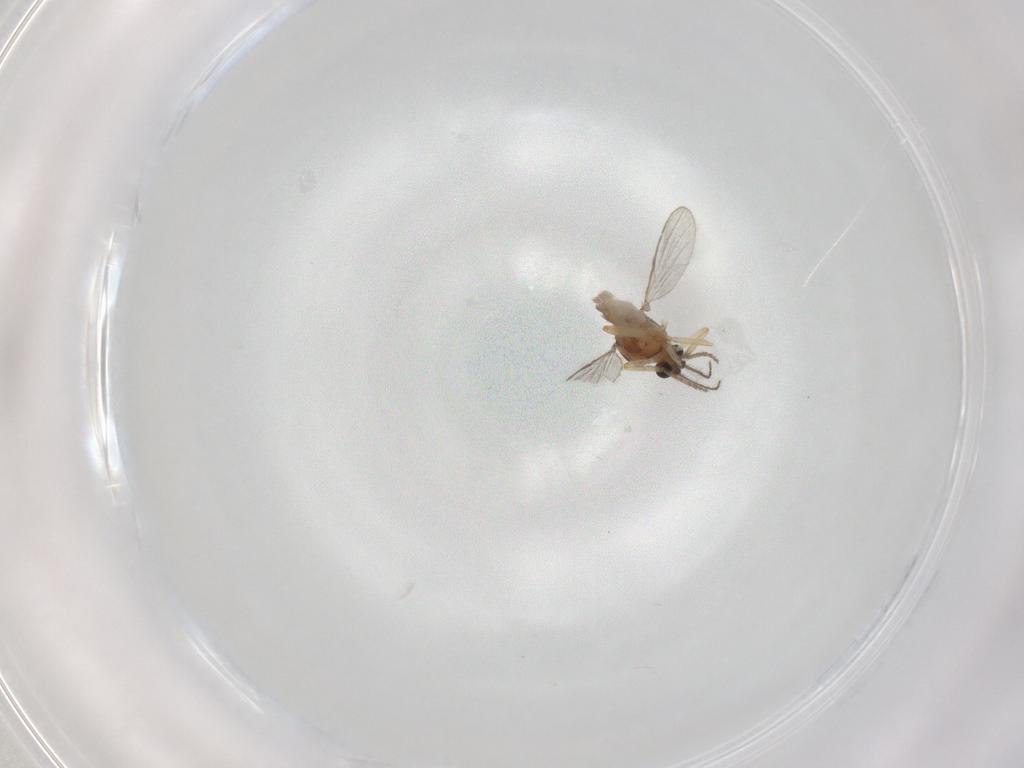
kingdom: Animalia
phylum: Arthropoda
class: Insecta
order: Diptera
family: Ceratopogonidae
